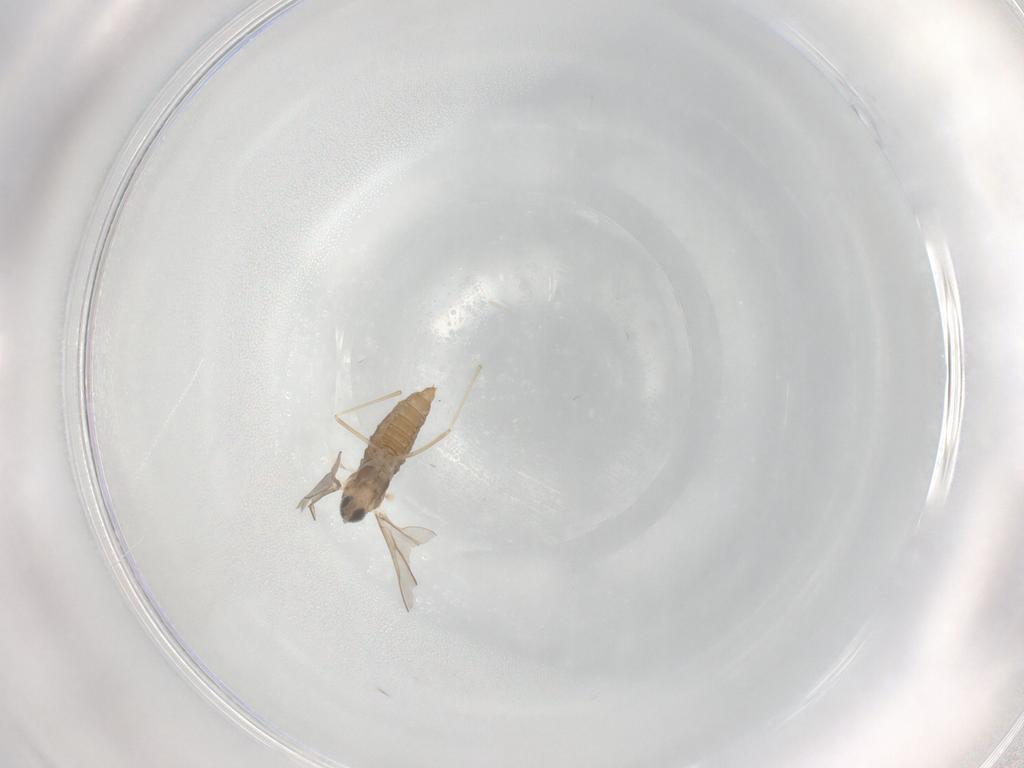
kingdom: Animalia
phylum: Arthropoda
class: Insecta
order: Diptera
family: Cecidomyiidae
